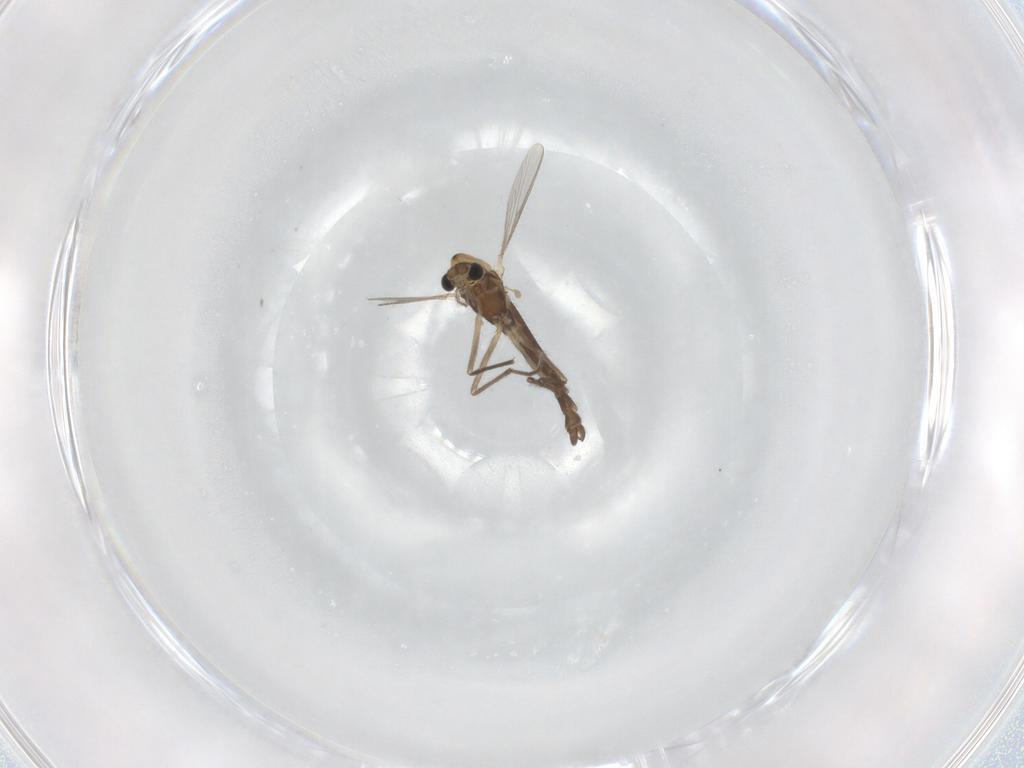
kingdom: Animalia
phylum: Arthropoda
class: Insecta
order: Diptera
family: Chironomidae
